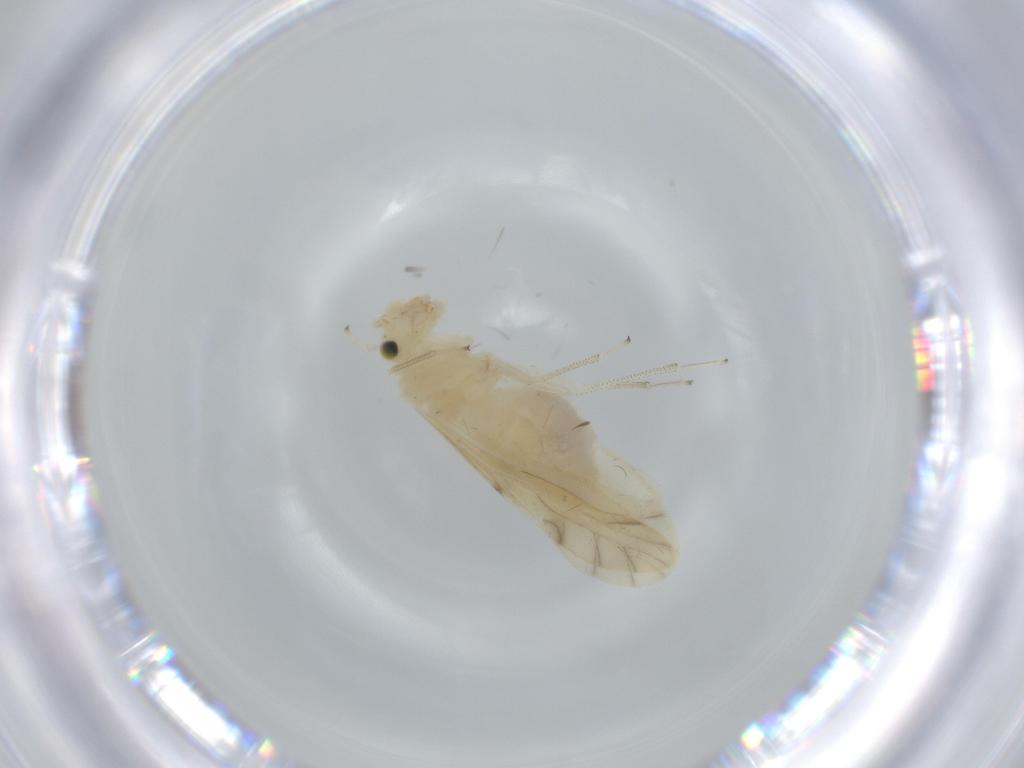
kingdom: Animalia
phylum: Arthropoda
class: Insecta
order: Psocodea
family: Caeciliusidae
